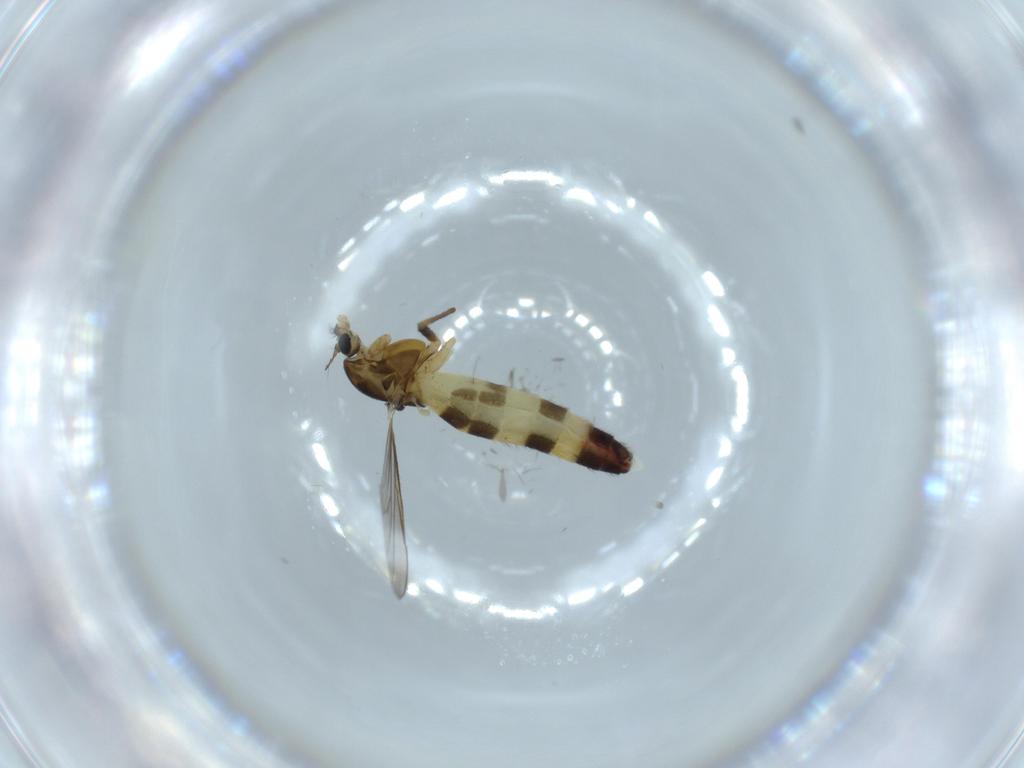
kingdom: Animalia
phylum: Arthropoda
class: Insecta
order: Diptera
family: Chironomidae
